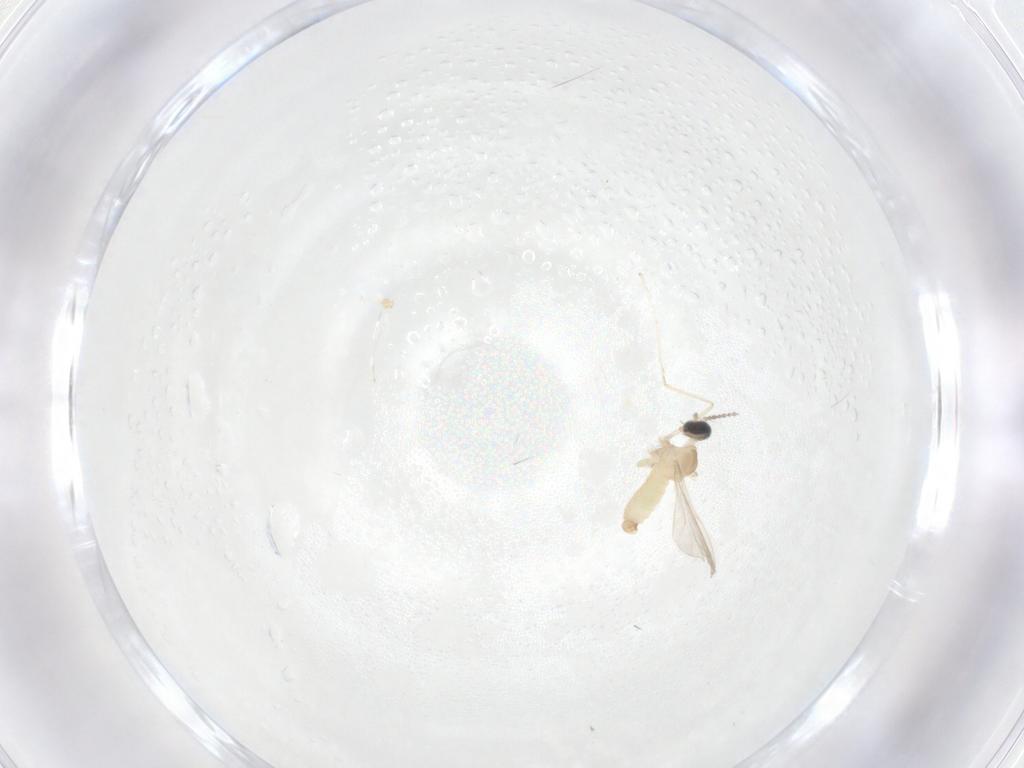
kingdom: Animalia
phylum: Arthropoda
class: Insecta
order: Diptera
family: Cecidomyiidae
